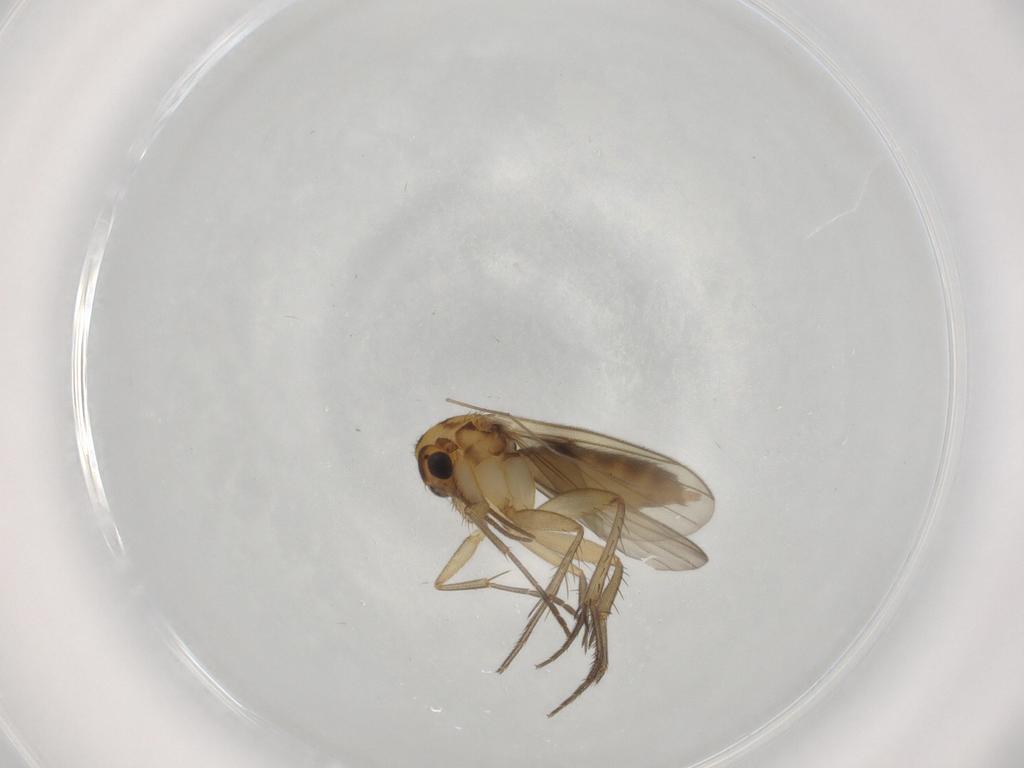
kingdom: Animalia
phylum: Arthropoda
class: Insecta
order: Diptera
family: Mycetophilidae
